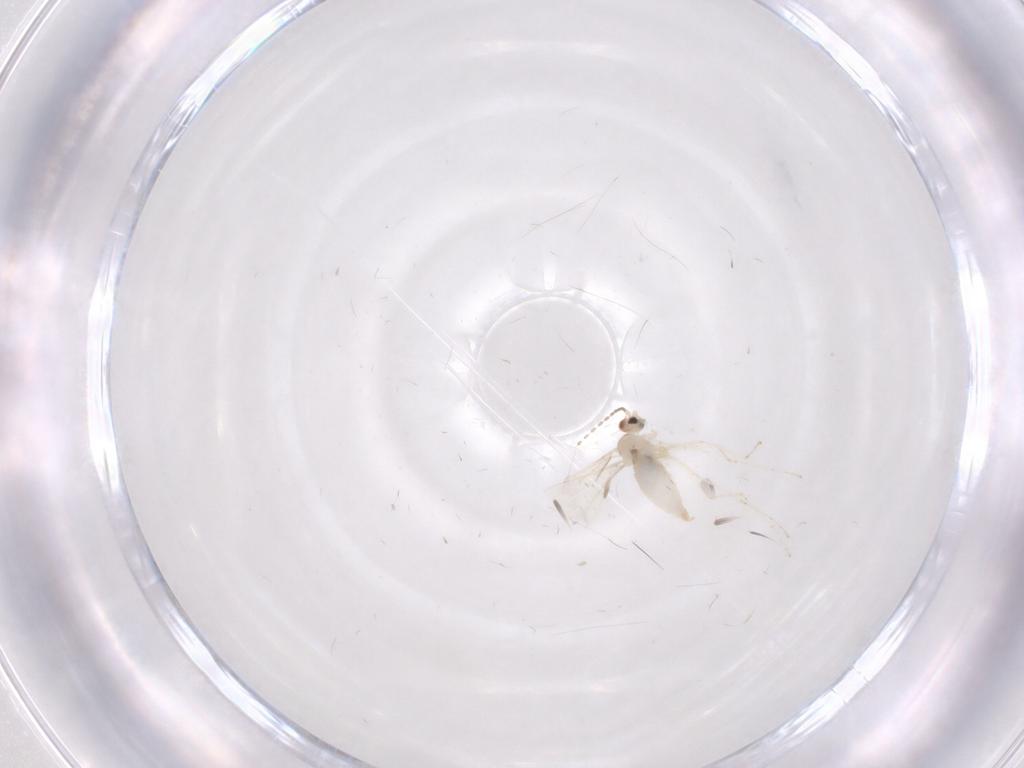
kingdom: Animalia
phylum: Arthropoda
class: Insecta
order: Diptera
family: Cecidomyiidae
